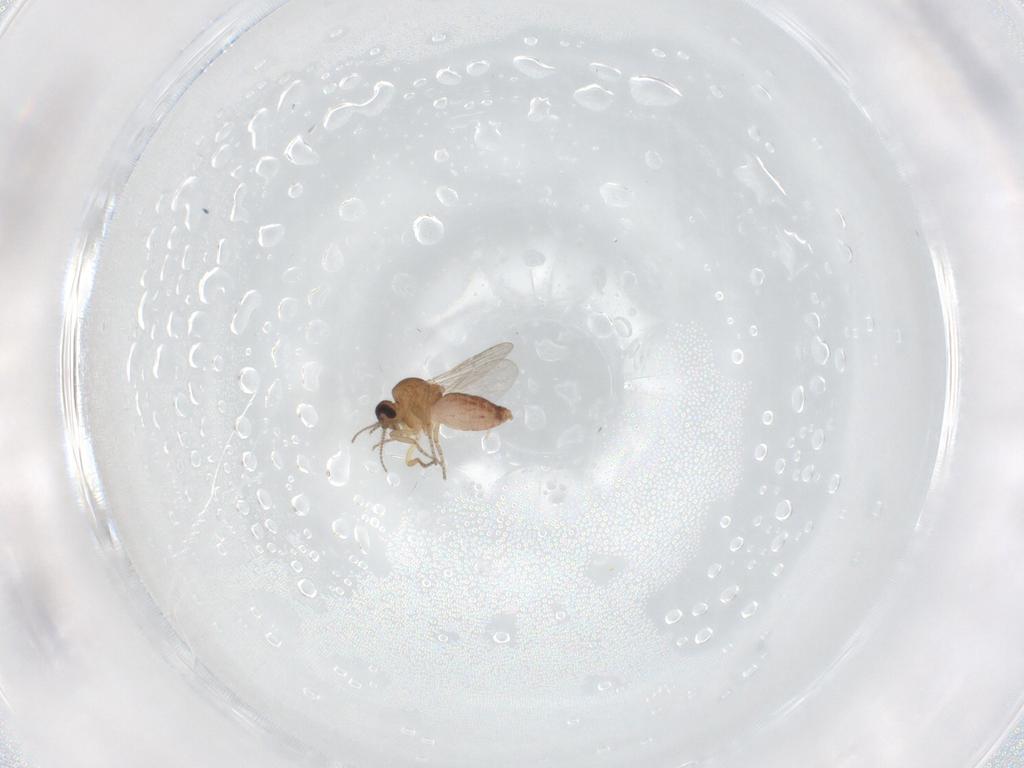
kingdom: Animalia
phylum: Arthropoda
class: Insecta
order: Diptera
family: Ceratopogonidae
